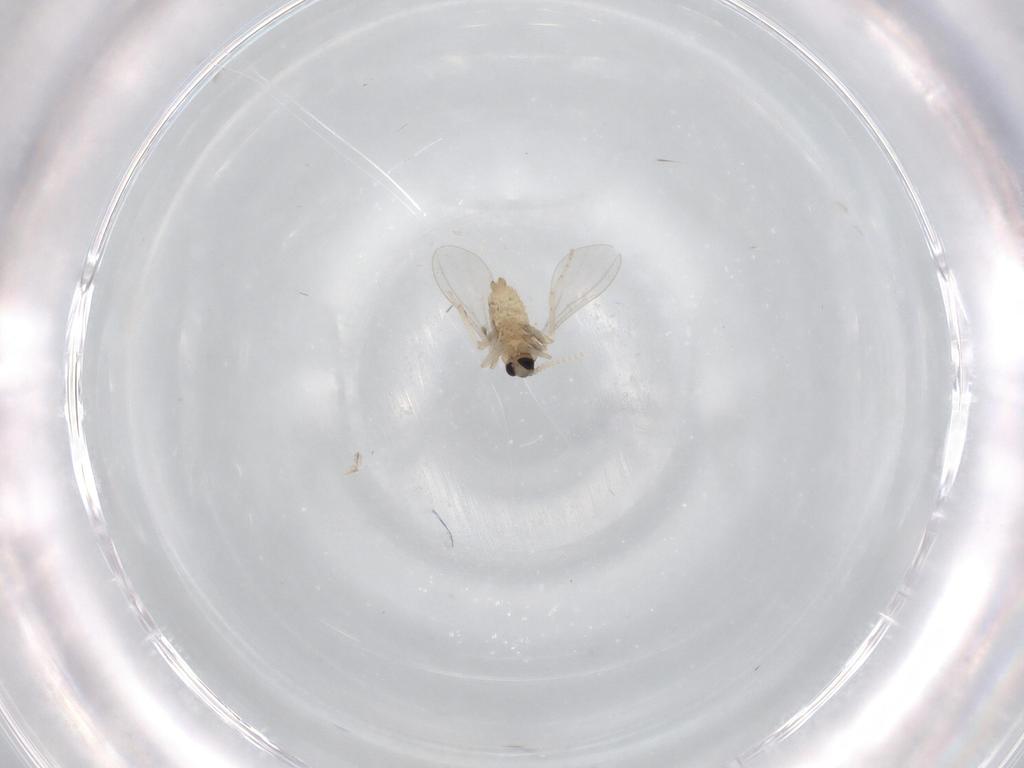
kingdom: Animalia
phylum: Arthropoda
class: Insecta
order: Diptera
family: Cecidomyiidae
